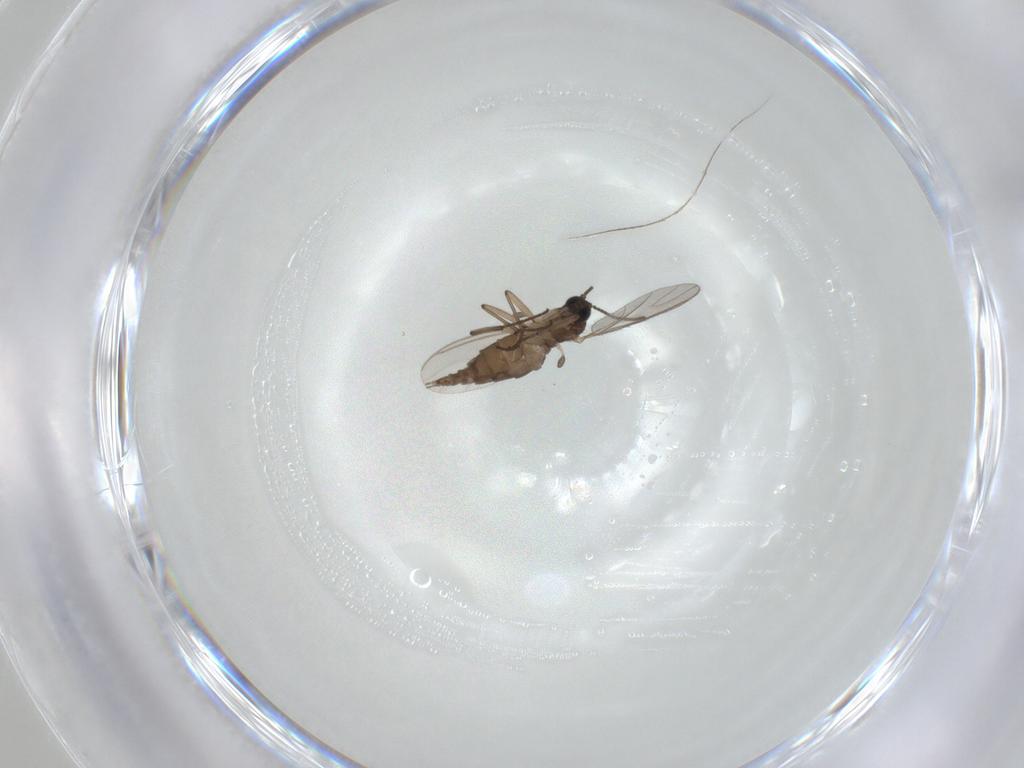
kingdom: Animalia
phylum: Arthropoda
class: Insecta
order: Diptera
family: Sciaridae
